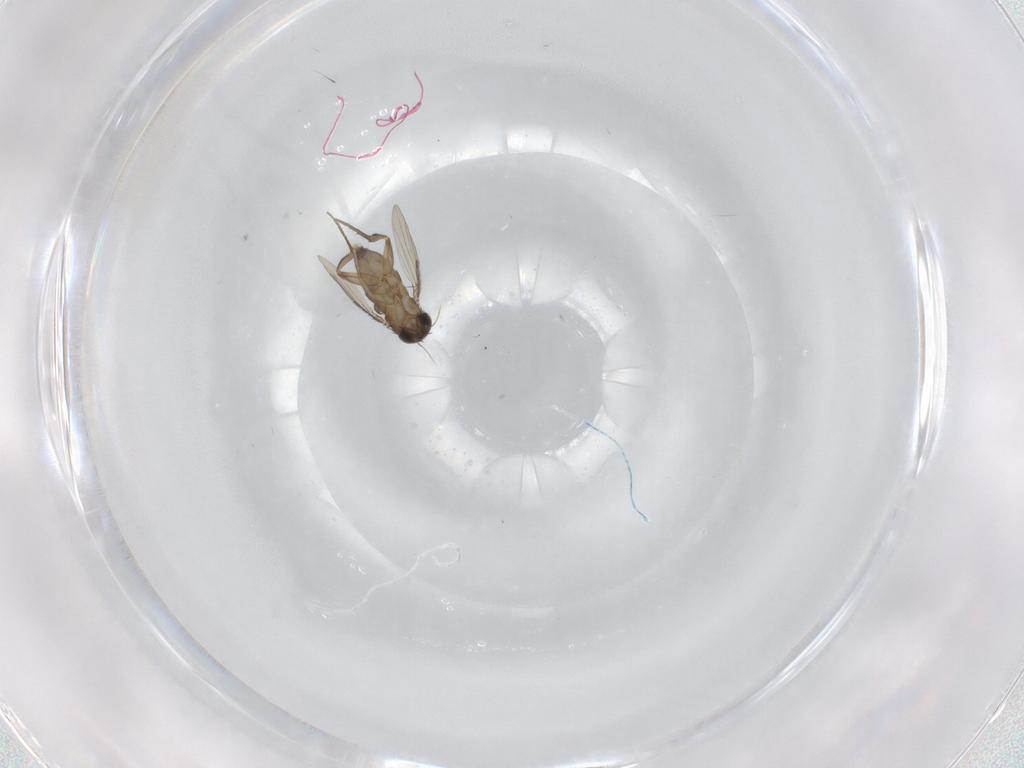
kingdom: Animalia
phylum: Arthropoda
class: Insecta
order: Diptera
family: Phoridae
